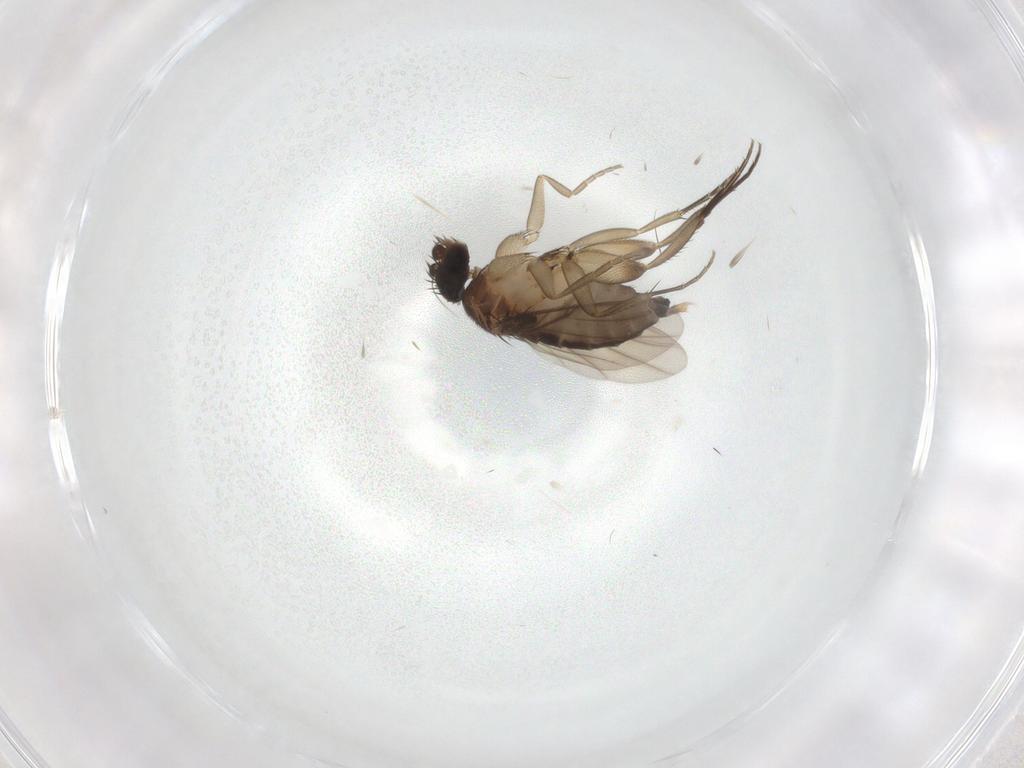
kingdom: Animalia
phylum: Arthropoda
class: Insecta
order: Diptera
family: Phoridae
